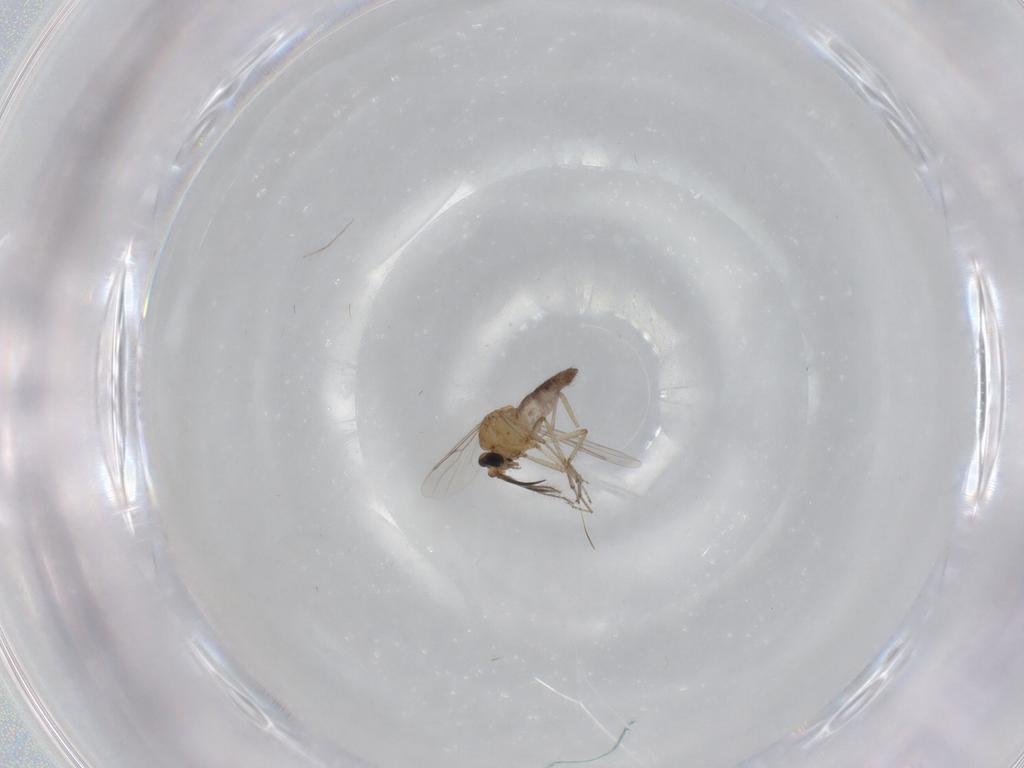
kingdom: Animalia
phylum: Arthropoda
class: Insecta
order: Diptera
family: Ceratopogonidae
